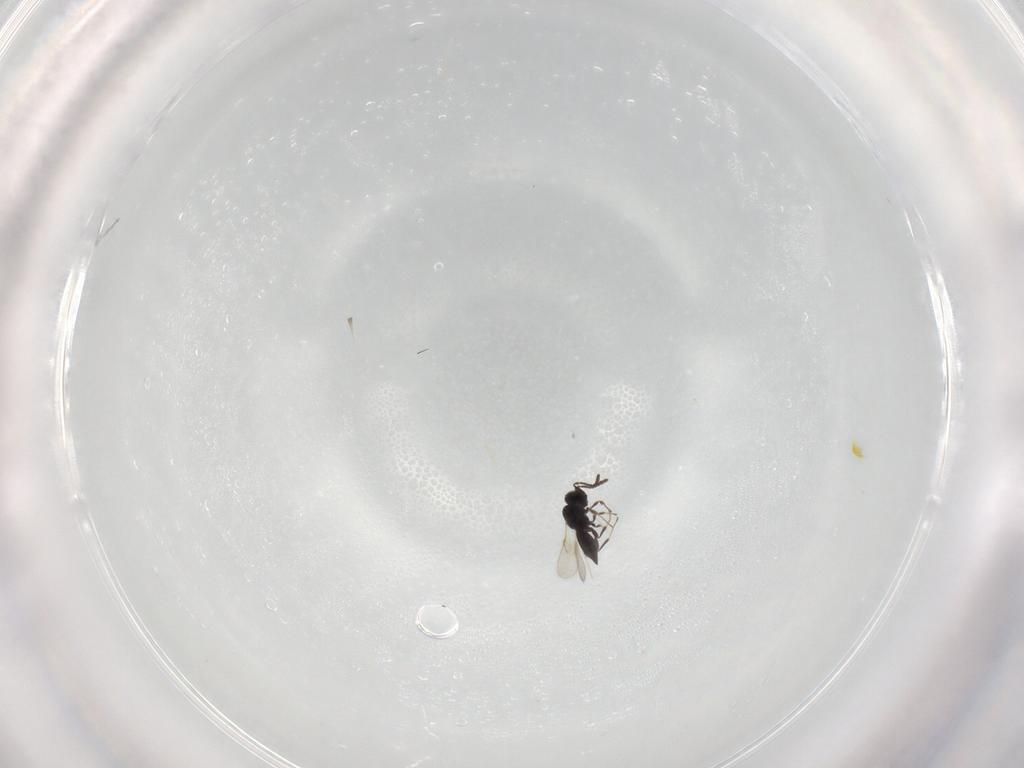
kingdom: Animalia
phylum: Arthropoda
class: Insecta
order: Hymenoptera
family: Scelionidae
